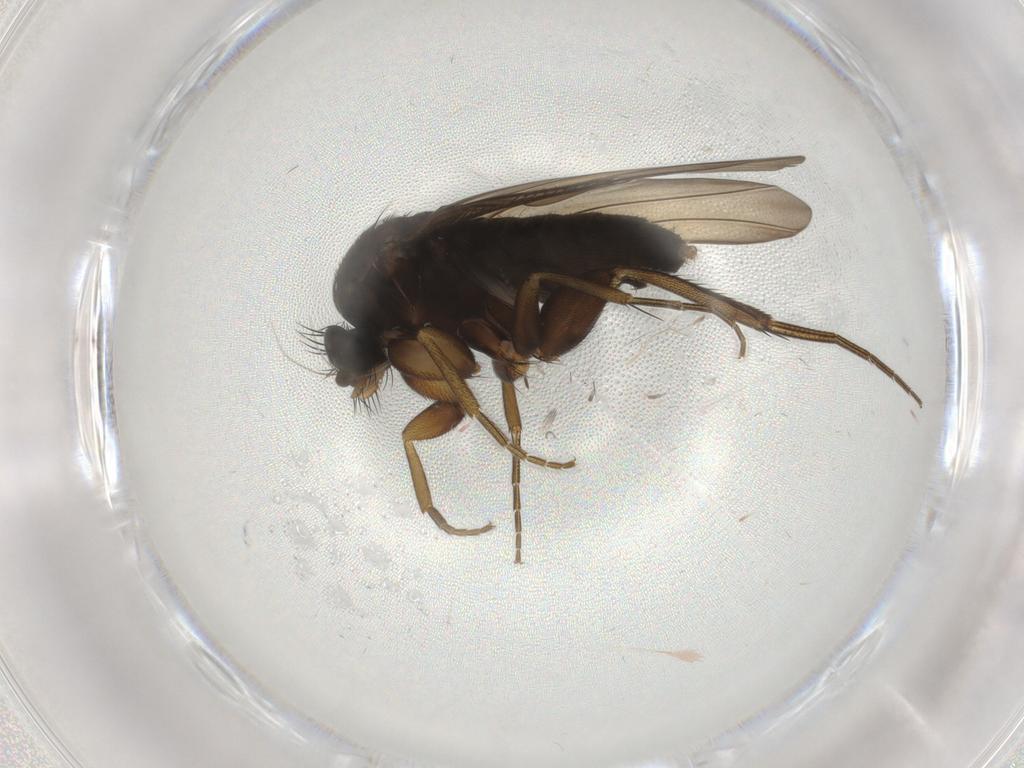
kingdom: Animalia
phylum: Arthropoda
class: Insecta
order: Diptera
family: Phoridae
